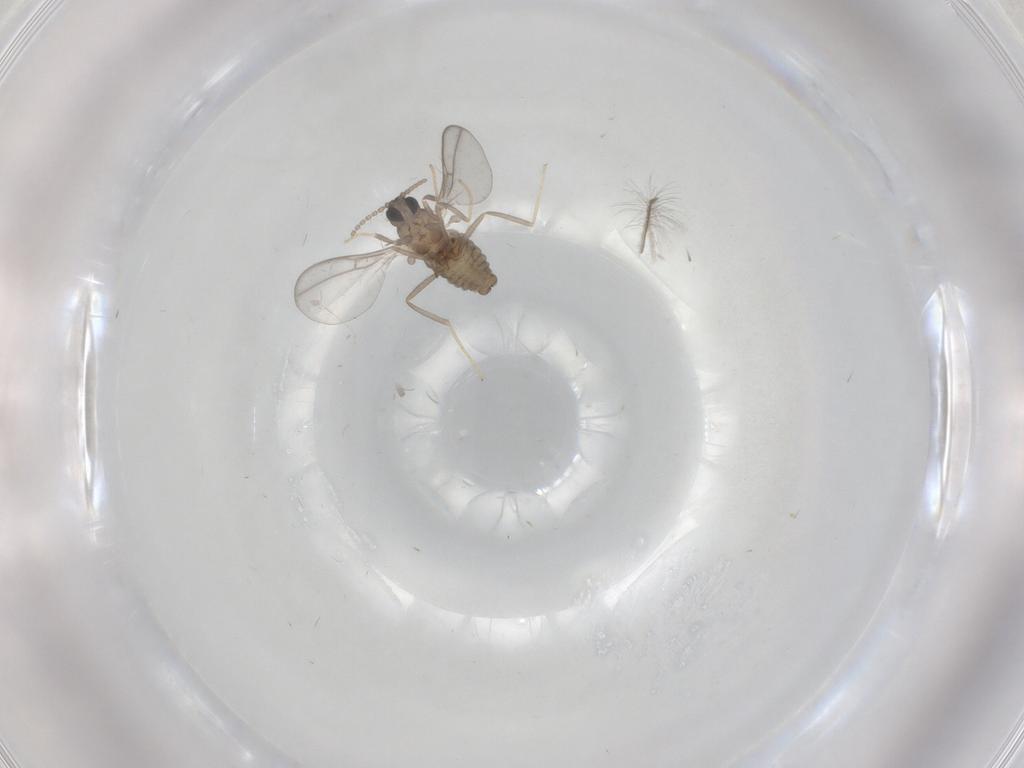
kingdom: Animalia
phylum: Arthropoda
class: Insecta
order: Diptera
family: Cecidomyiidae
